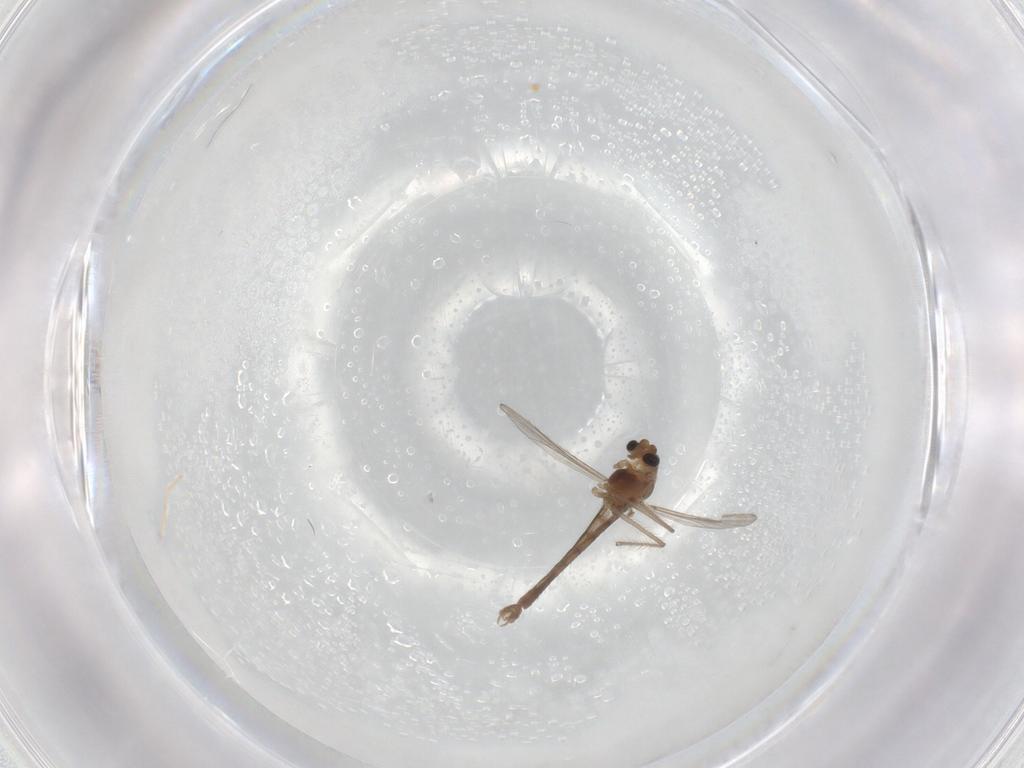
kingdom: Animalia
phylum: Arthropoda
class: Insecta
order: Diptera
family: Chironomidae
